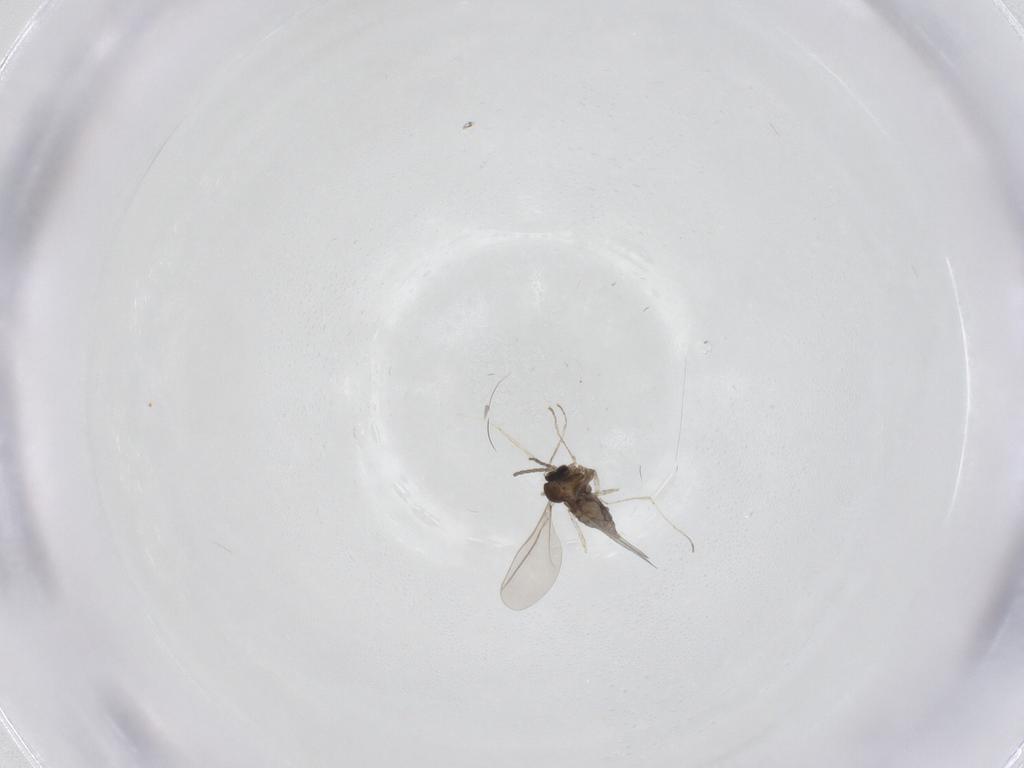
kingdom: Animalia
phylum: Arthropoda
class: Insecta
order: Diptera
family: Cecidomyiidae
